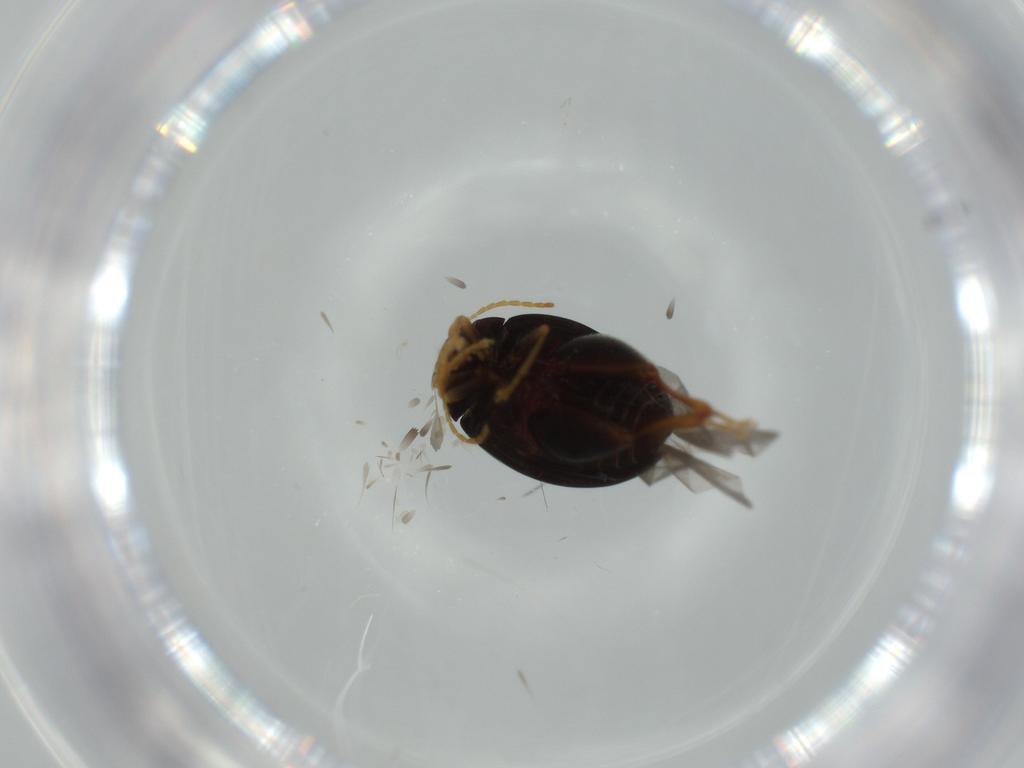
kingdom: Animalia
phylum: Arthropoda
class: Insecta
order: Coleoptera
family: Chrysomelidae
